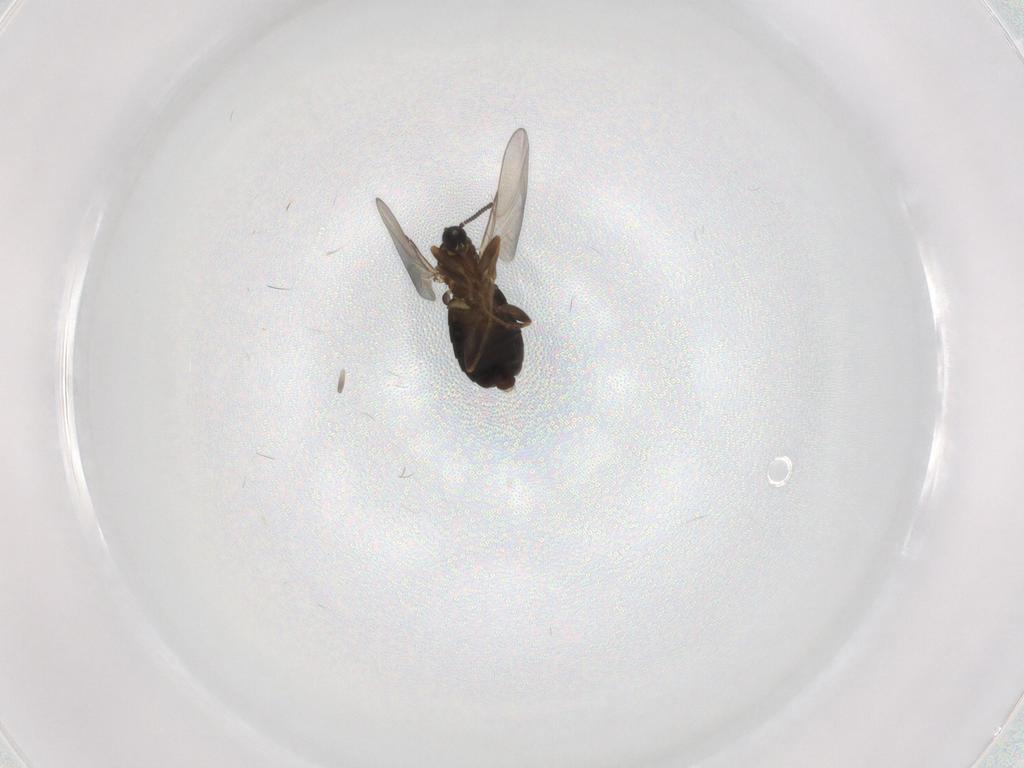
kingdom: Animalia
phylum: Arthropoda
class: Insecta
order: Diptera
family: Scatopsidae
